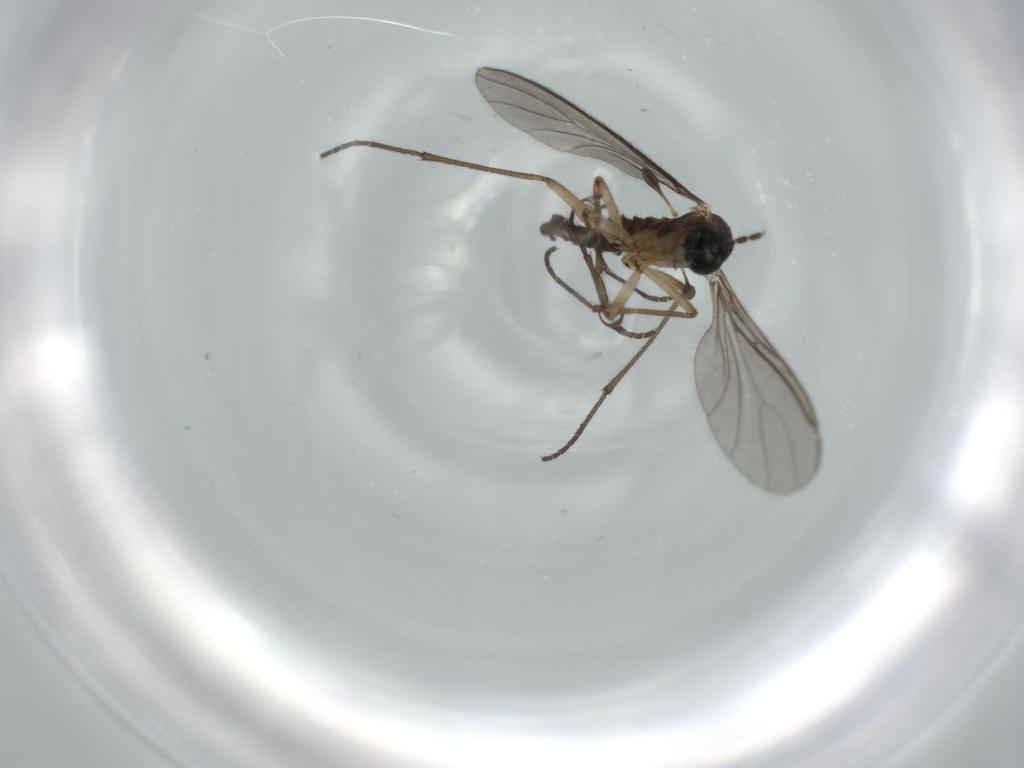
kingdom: Animalia
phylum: Arthropoda
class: Insecta
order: Diptera
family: Sciaridae
